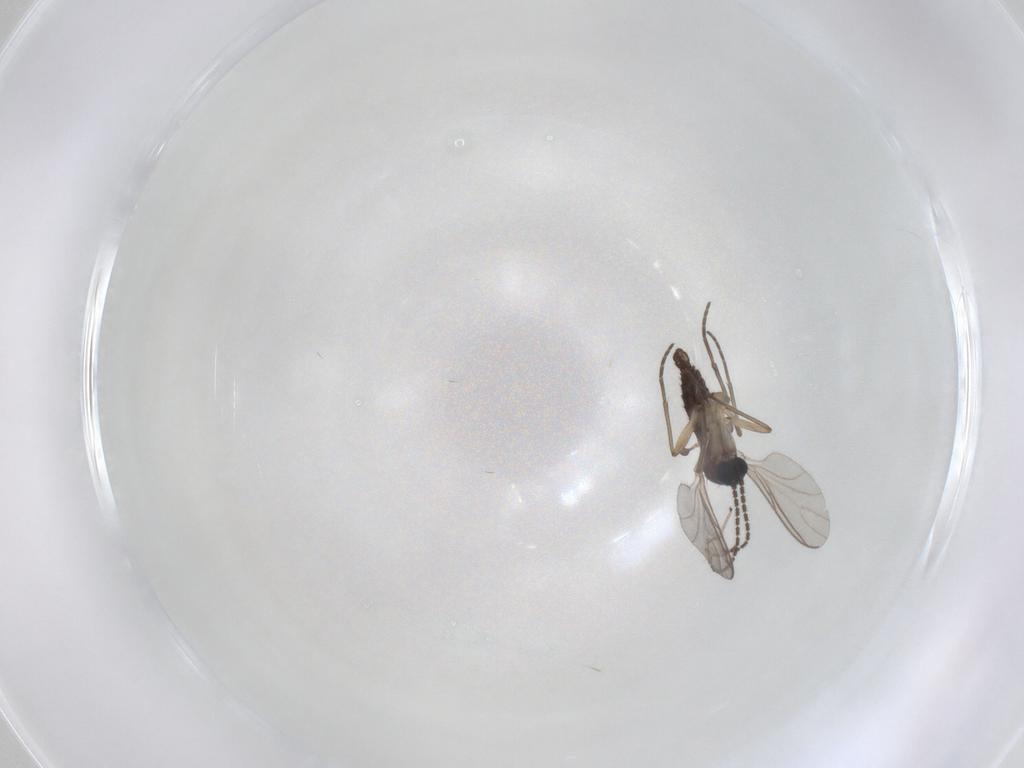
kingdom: Animalia
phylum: Arthropoda
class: Insecta
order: Diptera
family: Sciaridae
